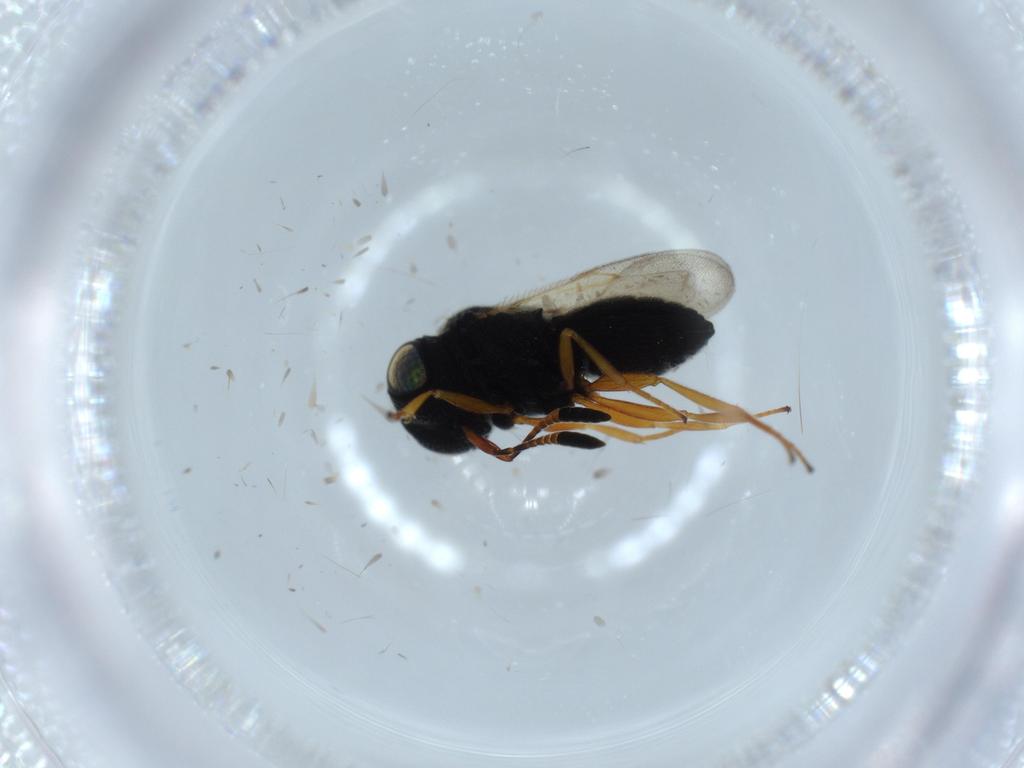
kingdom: Animalia
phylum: Arthropoda
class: Insecta
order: Hymenoptera
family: Scelionidae
